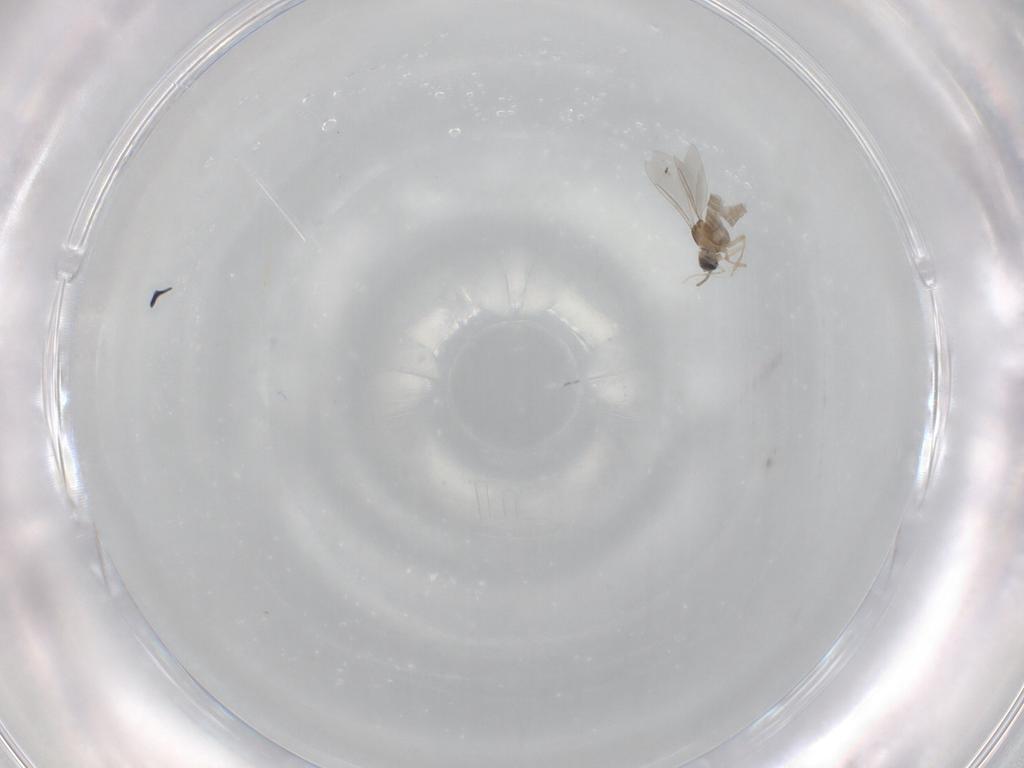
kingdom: Animalia
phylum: Arthropoda
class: Insecta
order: Diptera
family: Cecidomyiidae
